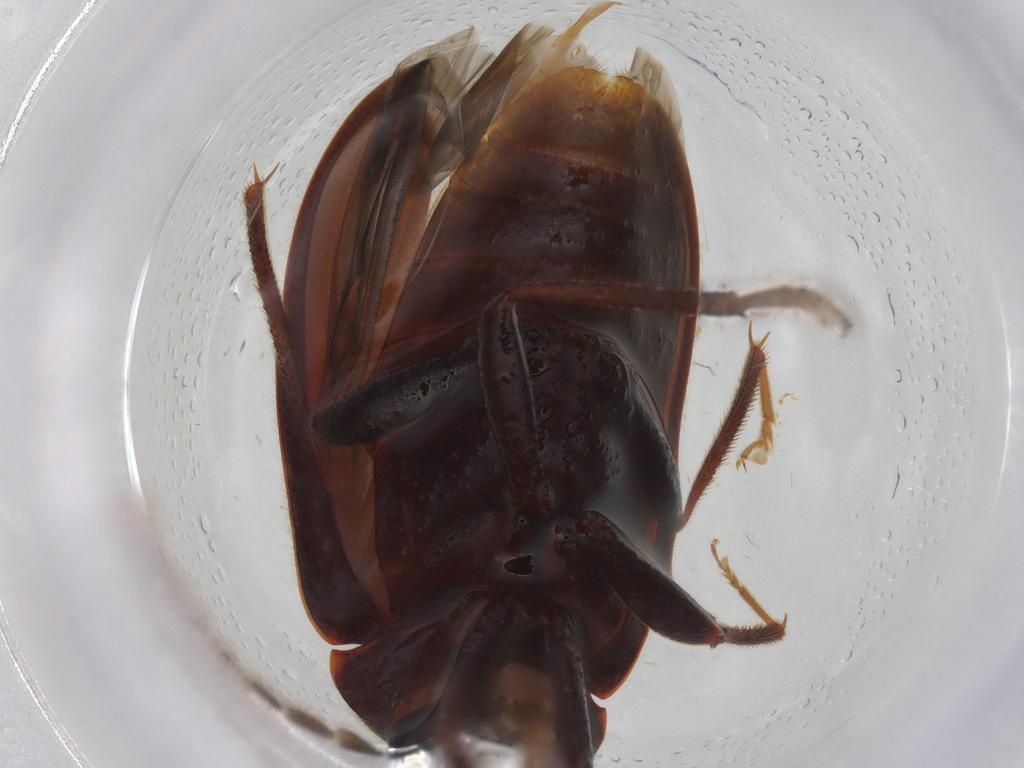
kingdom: Animalia
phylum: Arthropoda
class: Insecta
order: Coleoptera
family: Ptilodactylidae
